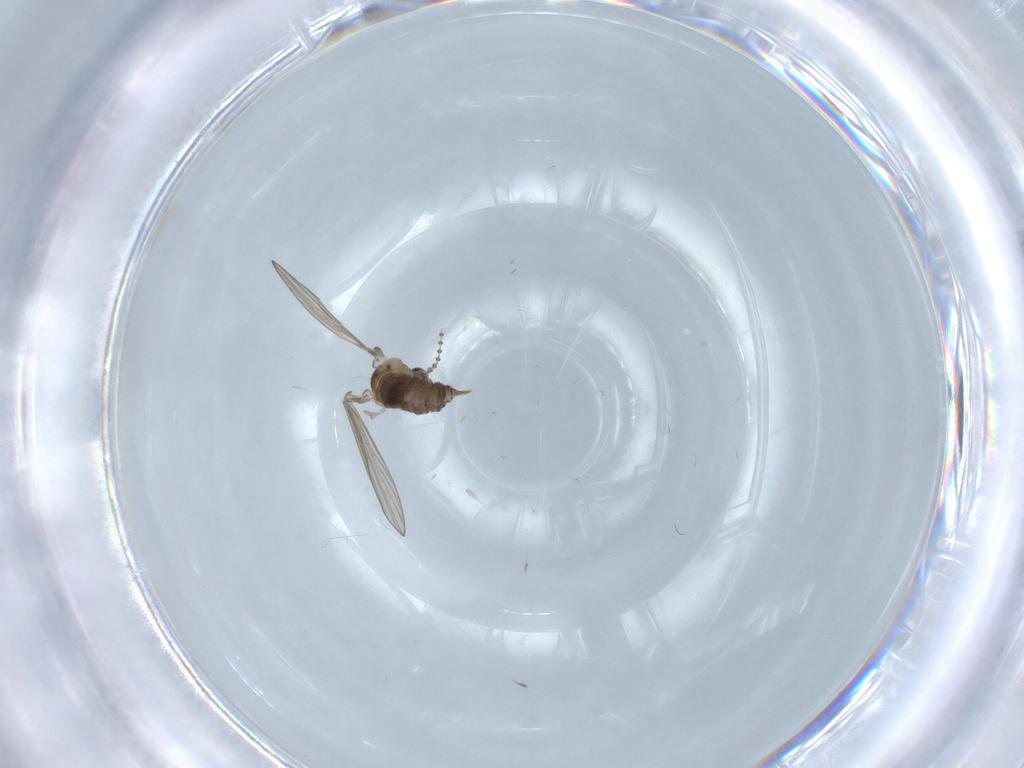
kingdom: Animalia
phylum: Arthropoda
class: Insecta
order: Diptera
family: Psychodidae
